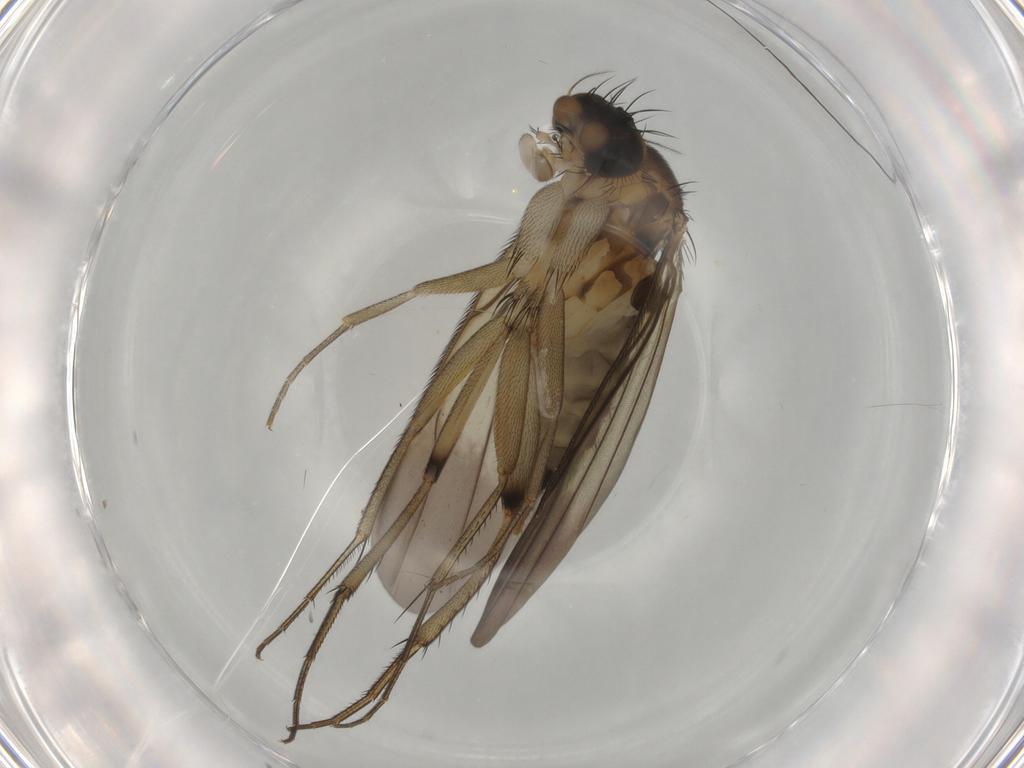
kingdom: Animalia
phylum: Arthropoda
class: Insecta
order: Diptera
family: Phoridae
